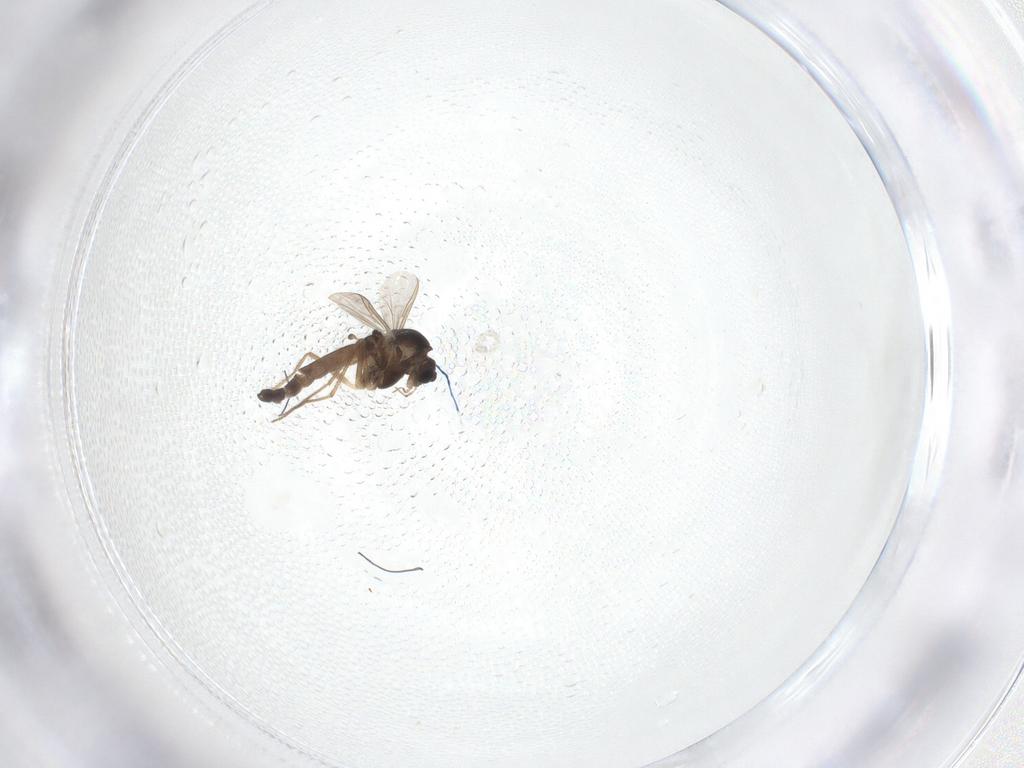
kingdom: Animalia
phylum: Arthropoda
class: Insecta
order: Diptera
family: Chironomidae
